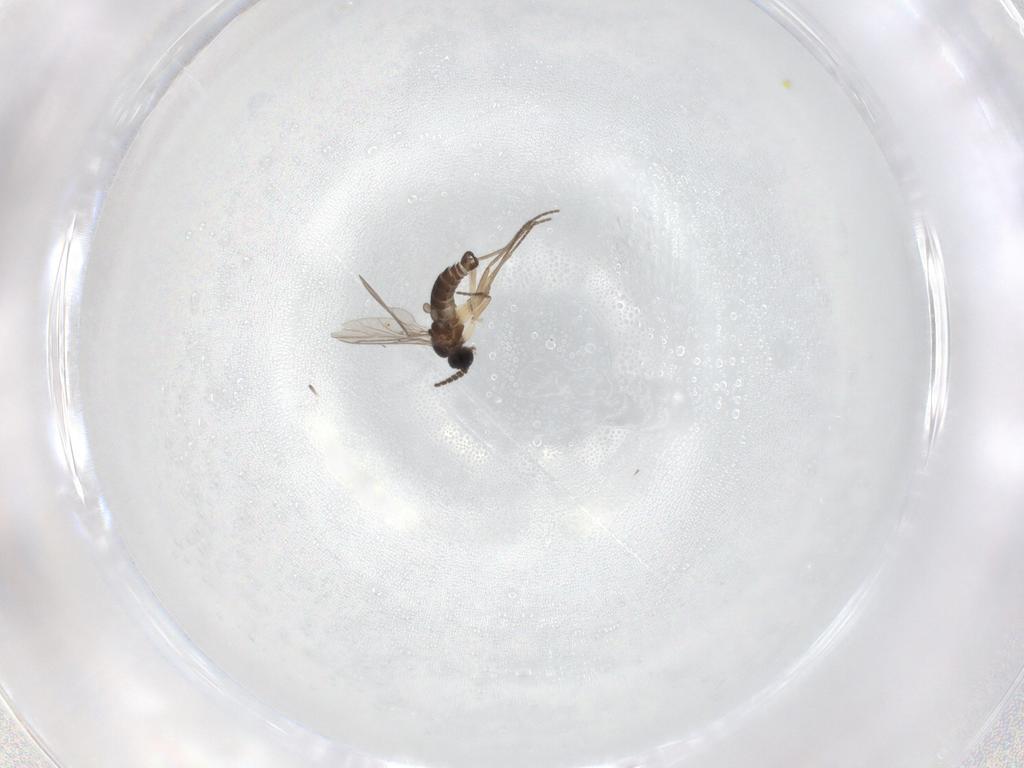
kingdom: Animalia
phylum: Arthropoda
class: Insecta
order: Diptera
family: Sciaridae
